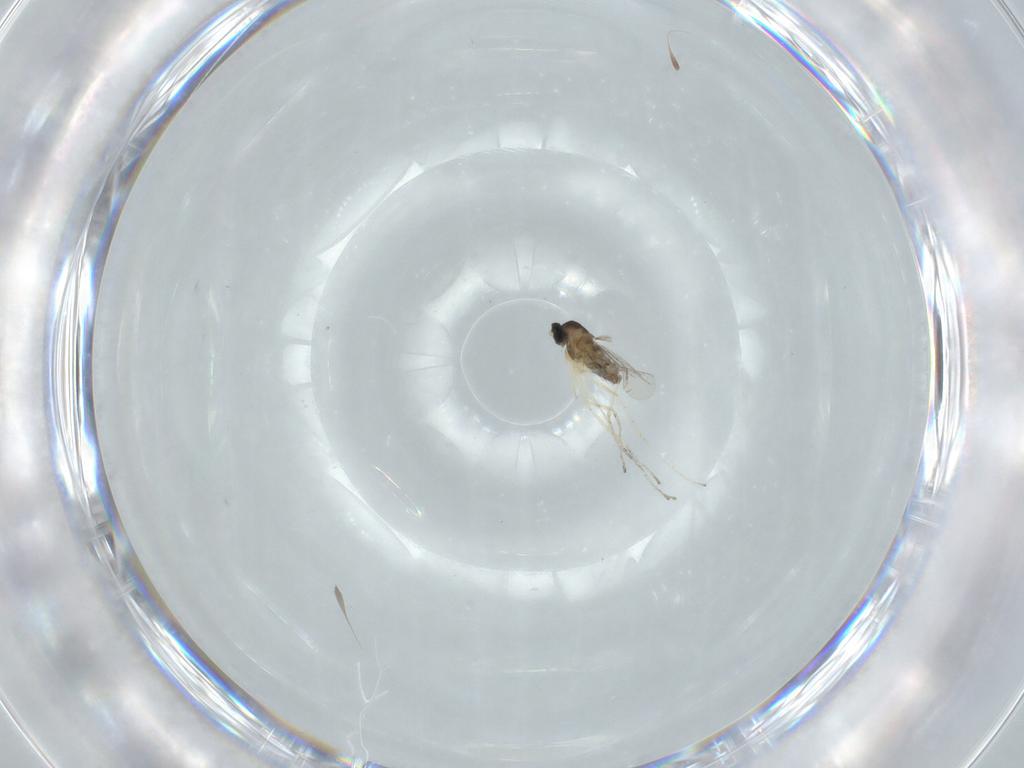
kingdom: Animalia
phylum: Arthropoda
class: Insecta
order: Diptera
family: Cecidomyiidae
